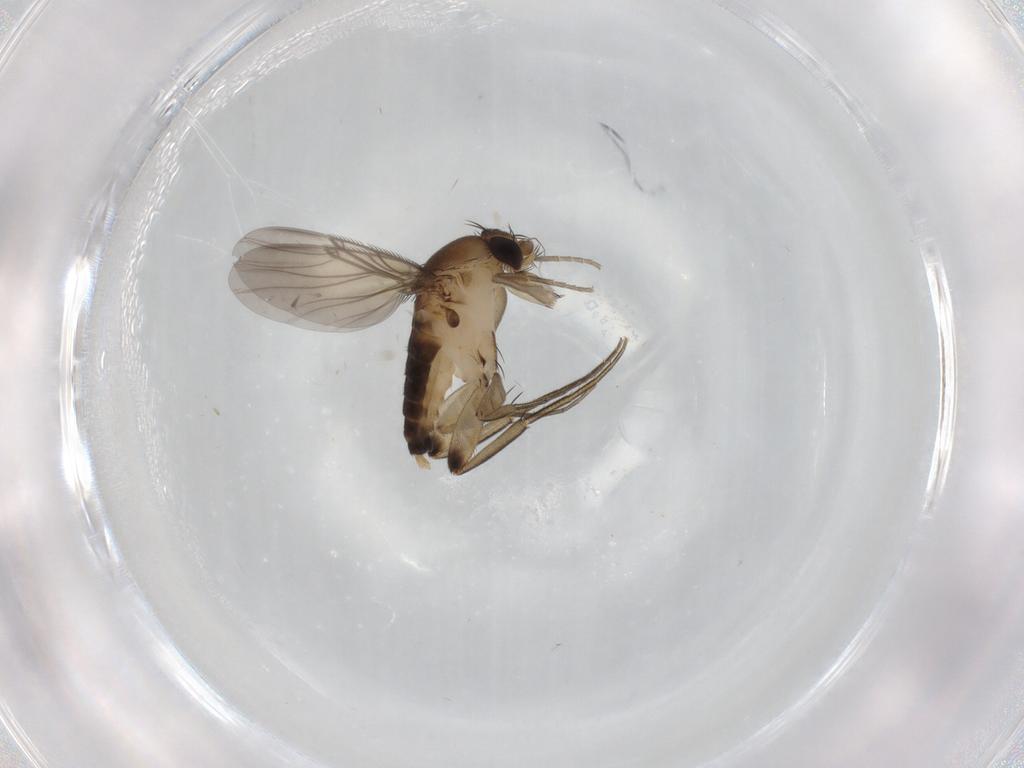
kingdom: Animalia
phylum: Arthropoda
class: Insecta
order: Diptera
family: Phoridae
